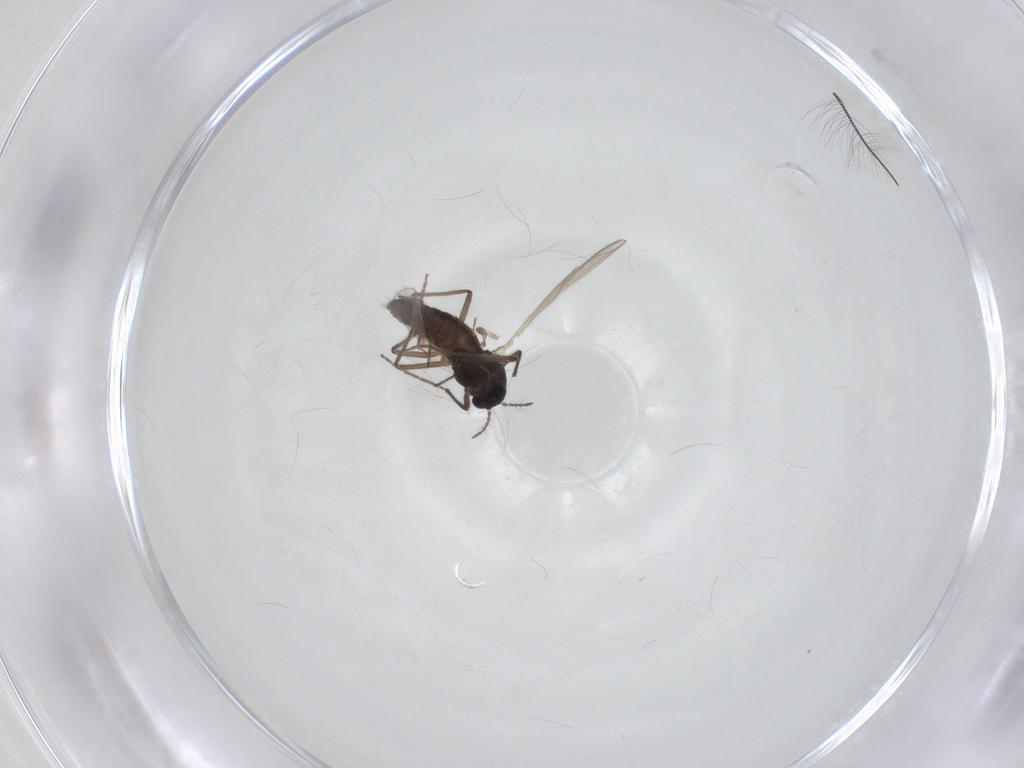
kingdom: Animalia
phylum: Arthropoda
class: Insecta
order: Diptera
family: Chironomidae
